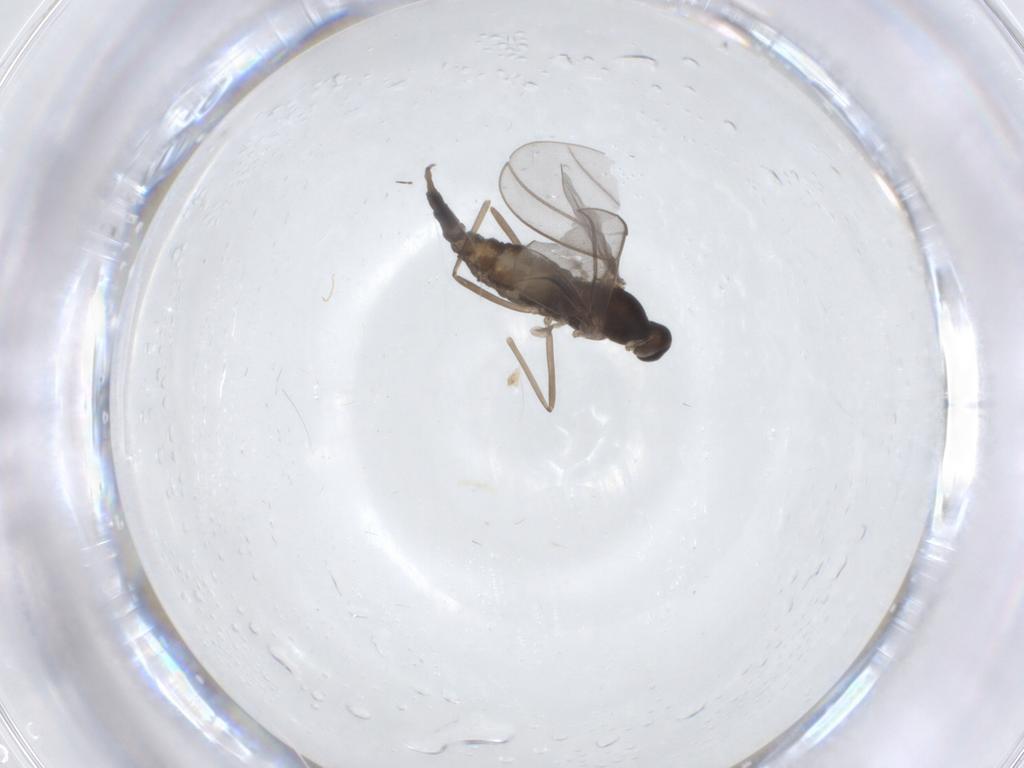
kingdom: Animalia
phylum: Arthropoda
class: Insecta
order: Diptera
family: Cecidomyiidae
